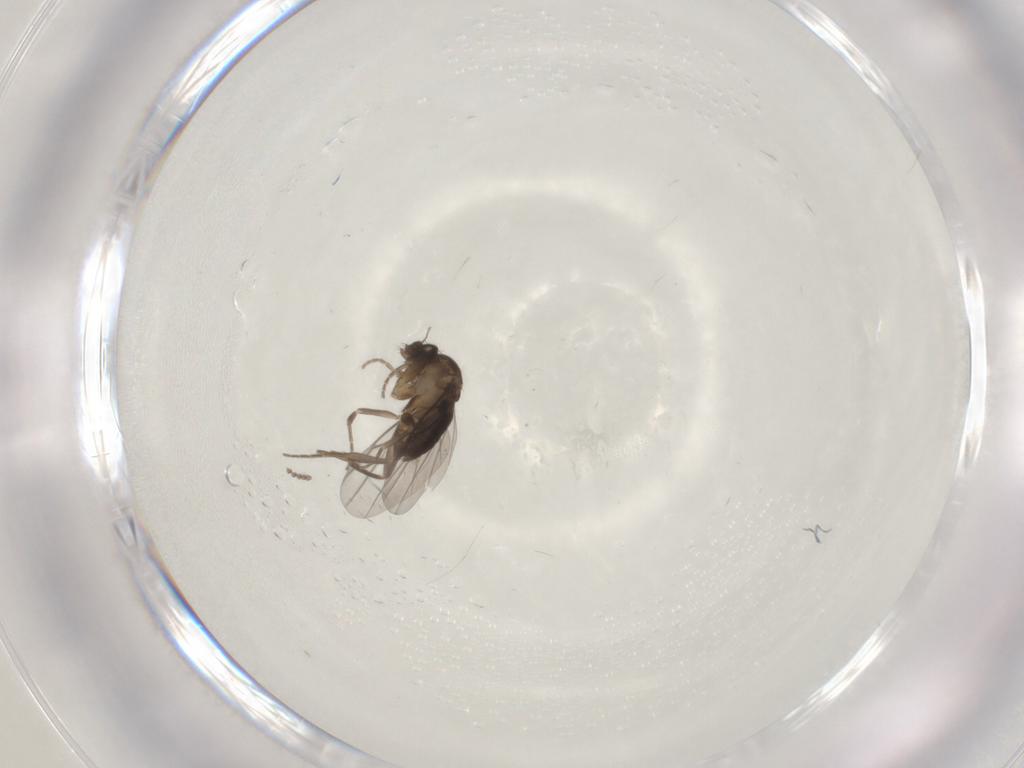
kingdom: Animalia
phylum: Arthropoda
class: Insecta
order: Diptera
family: Phoridae
